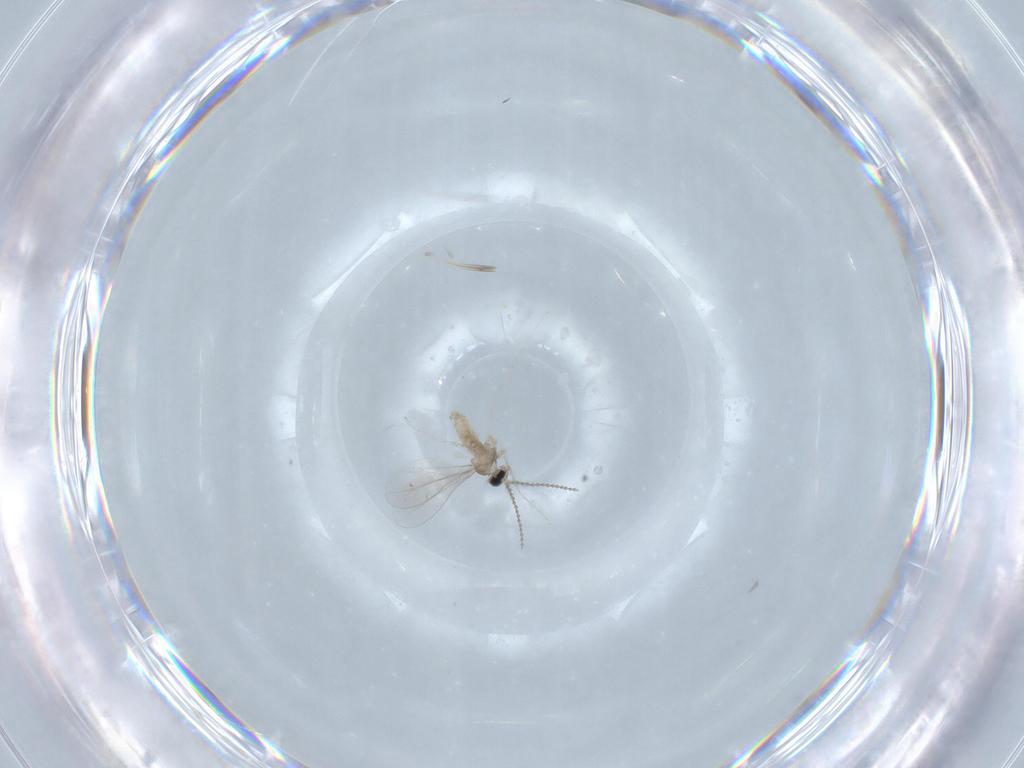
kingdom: Animalia
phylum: Arthropoda
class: Insecta
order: Diptera
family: Cecidomyiidae
